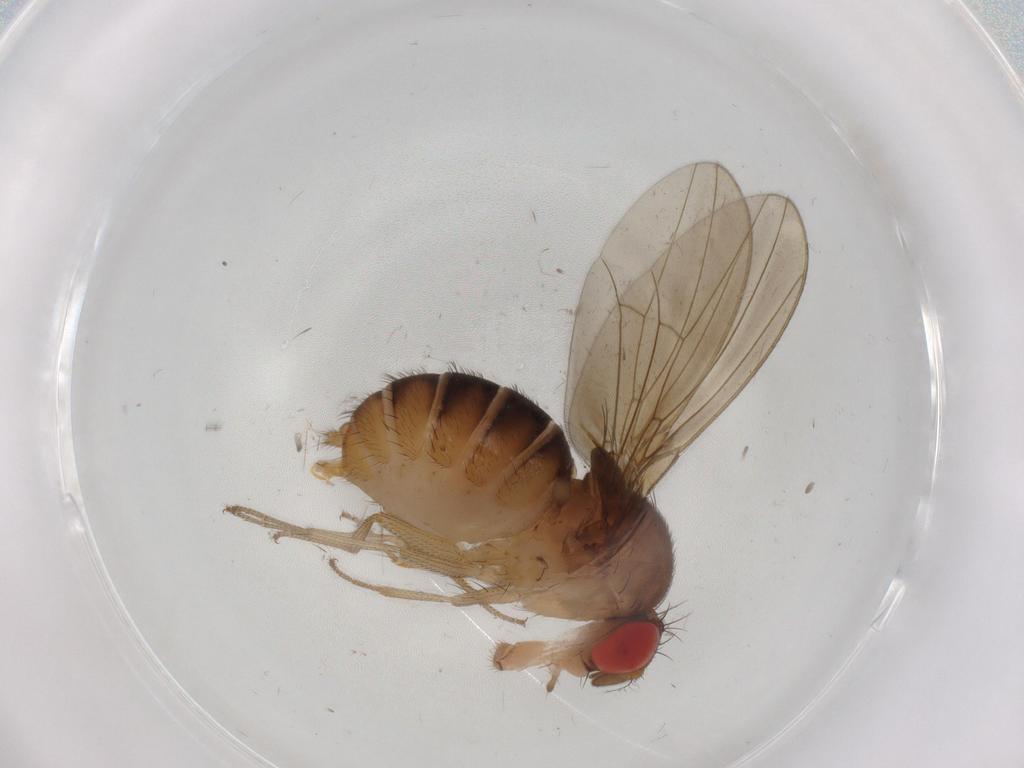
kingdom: Animalia
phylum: Arthropoda
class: Insecta
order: Diptera
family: Drosophilidae
